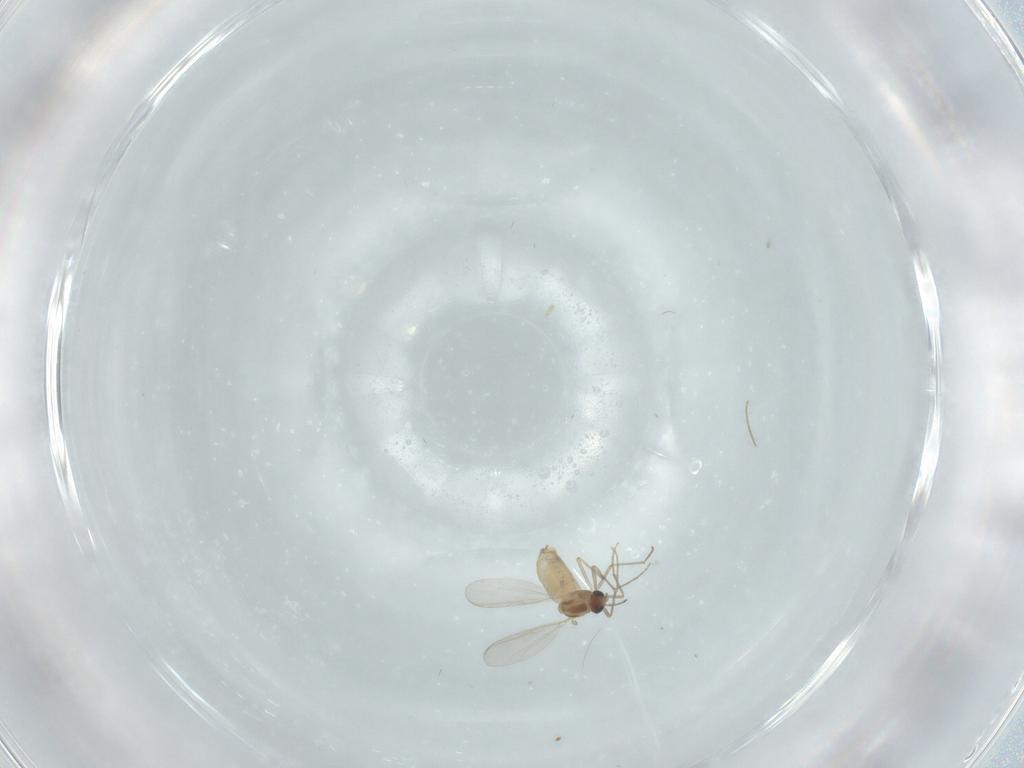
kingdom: Animalia
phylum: Arthropoda
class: Insecta
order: Diptera
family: Chironomidae
